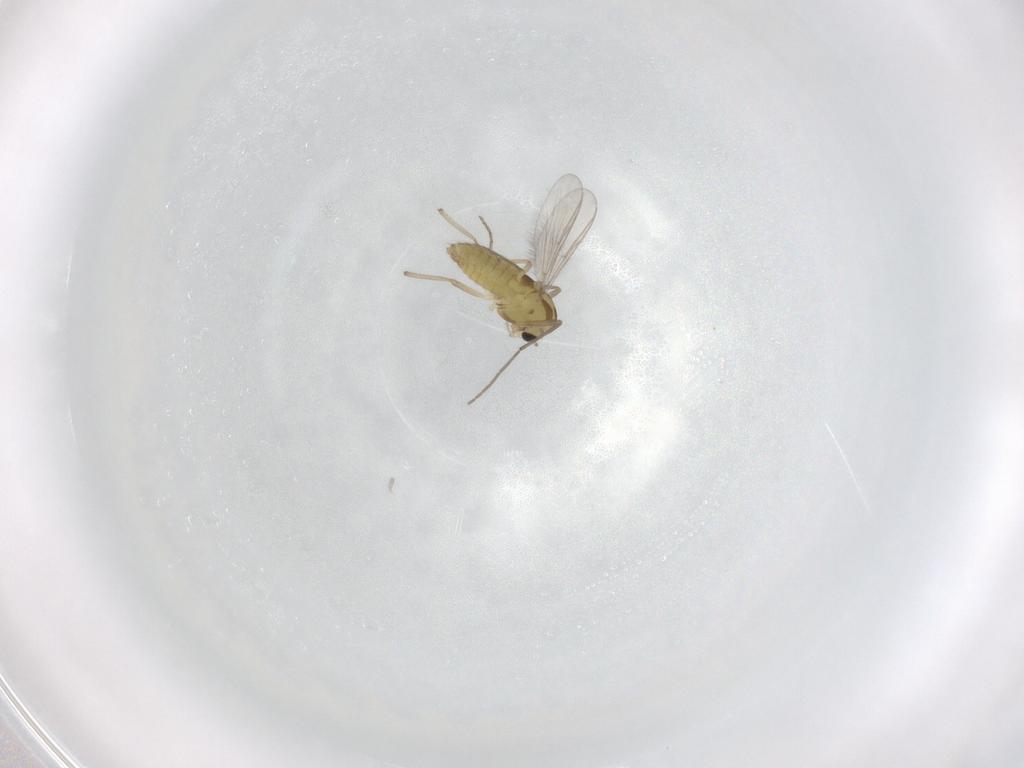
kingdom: Animalia
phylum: Arthropoda
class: Insecta
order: Diptera
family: Chironomidae
